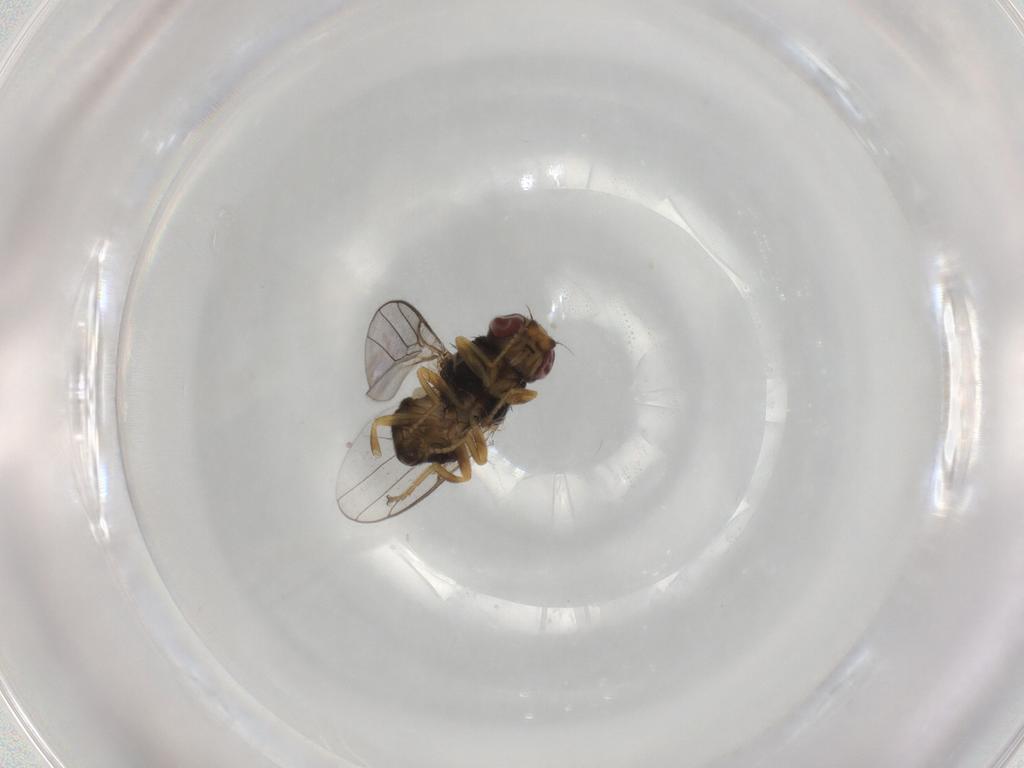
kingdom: Animalia
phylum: Arthropoda
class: Insecta
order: Diptera
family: Chloropidae
